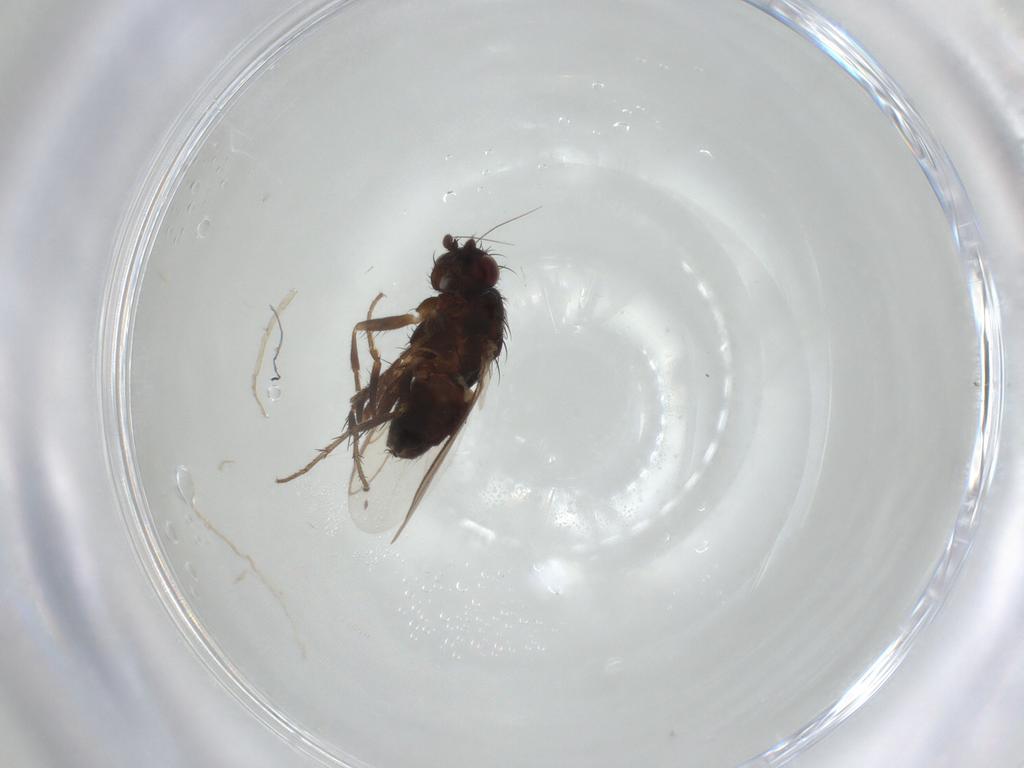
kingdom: Animalia
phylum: Arthropoda
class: Insecta
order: Diptera
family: Sphaeroceridae
